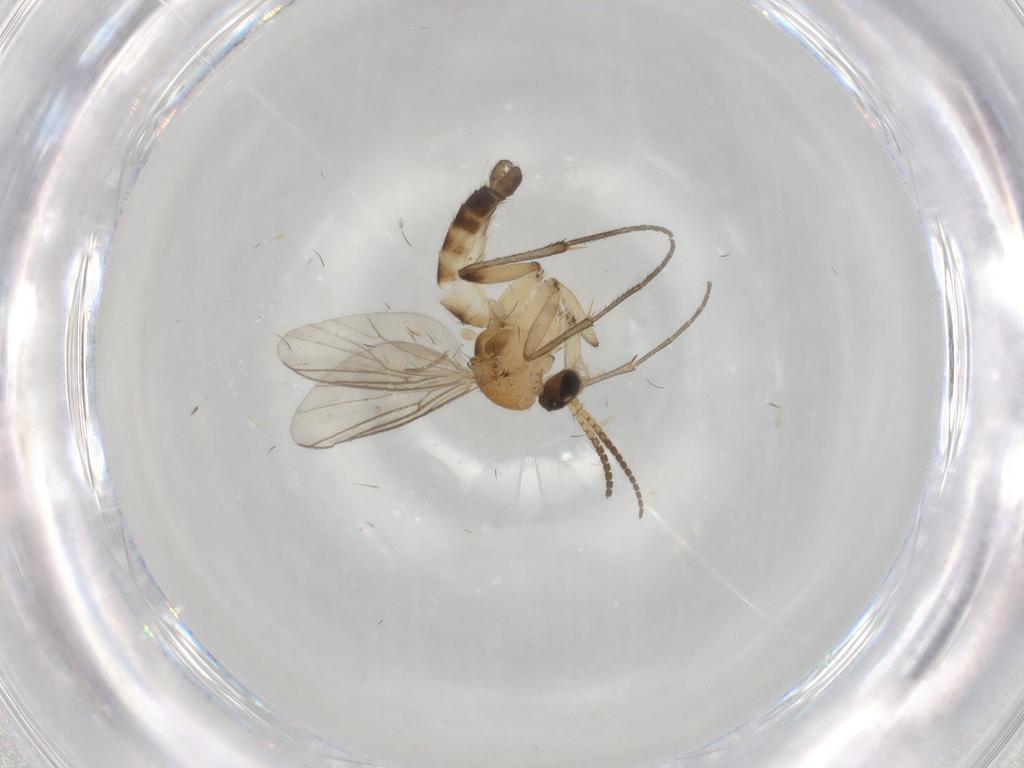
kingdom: Animalia
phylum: Arthropoda
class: Insecta
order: Diptera
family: Phoridae
